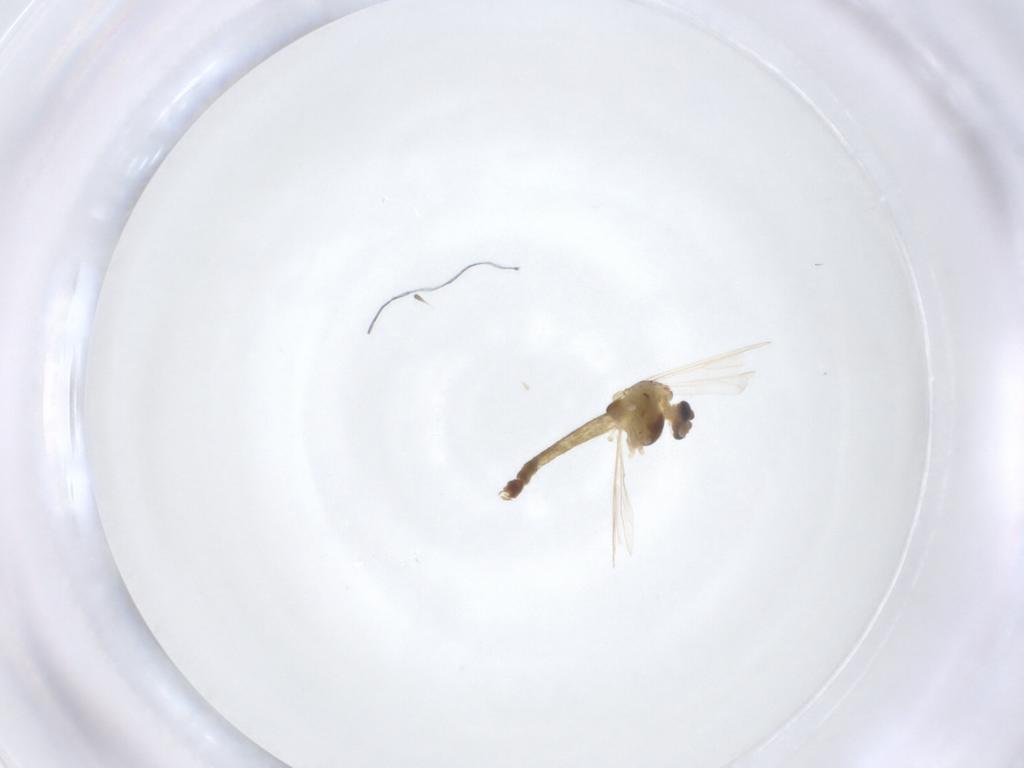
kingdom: Animalia
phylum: Arthropoda
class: Insecta
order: Diptera
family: Chironomidae
